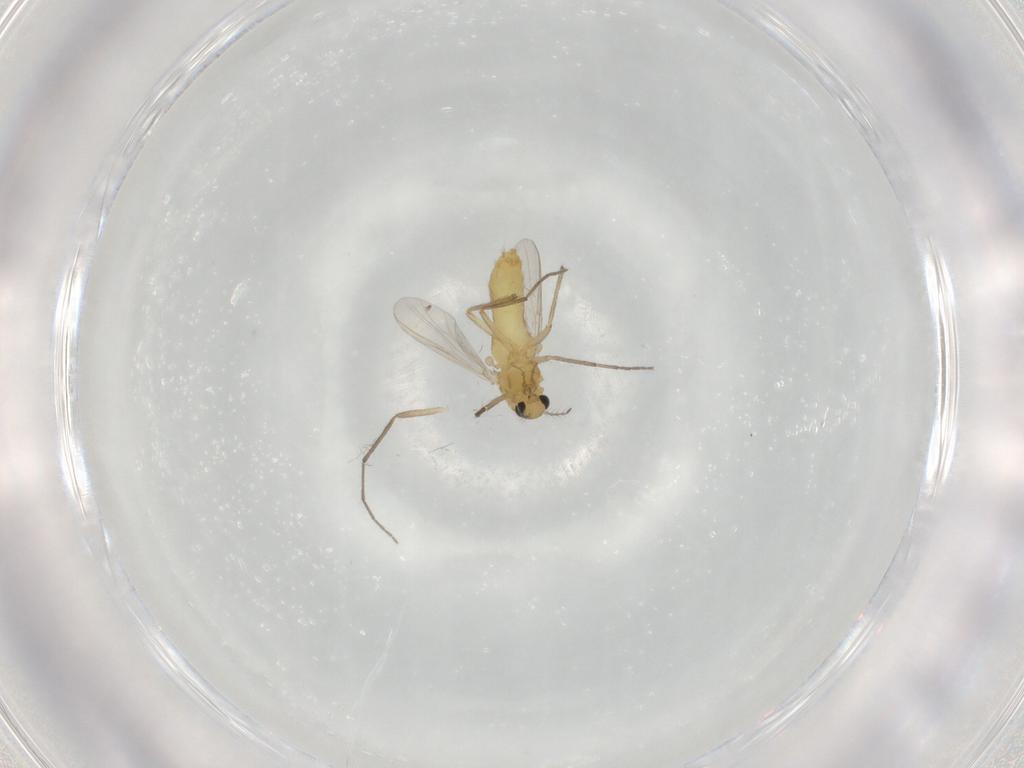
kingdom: Animalia
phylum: Arthropoda
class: Insecta
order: Diptera
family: Chironomidae
